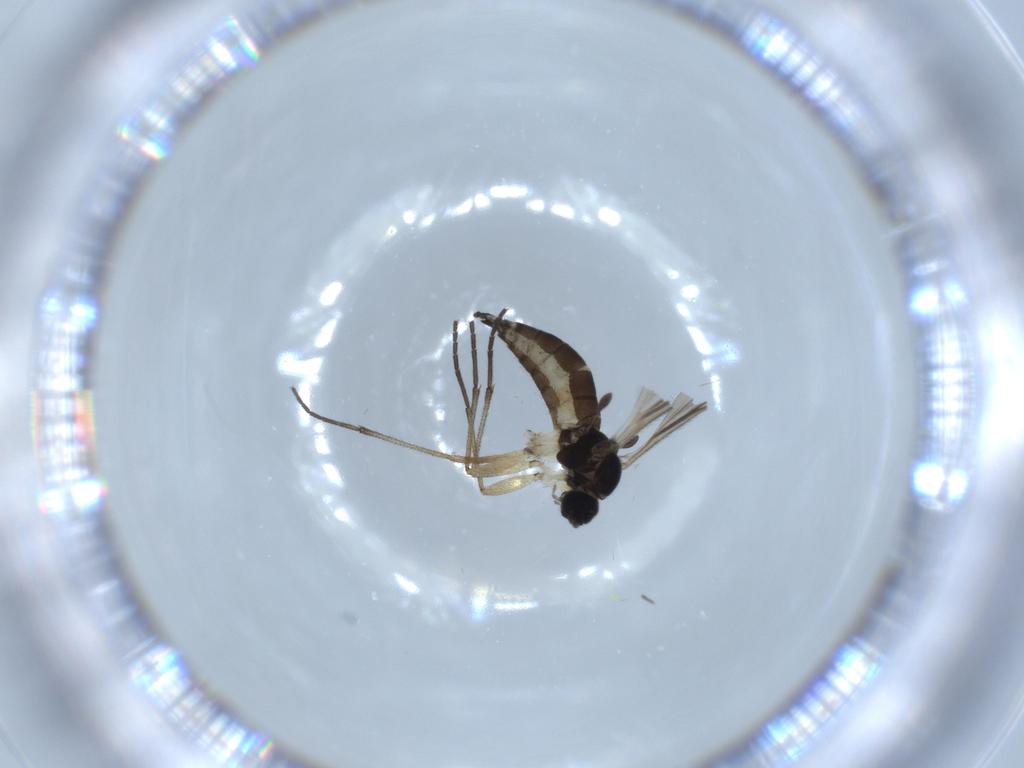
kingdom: Animalia
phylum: Arthropoda
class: Insecta
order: Diptera
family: Sciaridae
